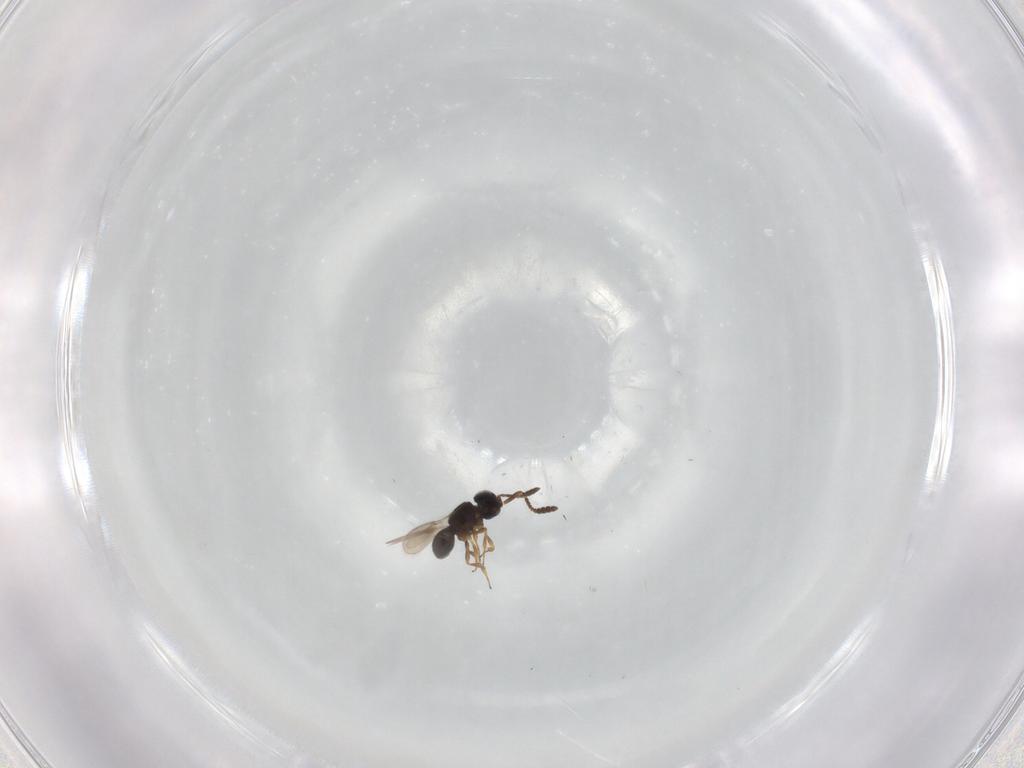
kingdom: Animalia
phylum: Arthropoda
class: Insecta
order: Hymenoptera
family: Scelionidae
